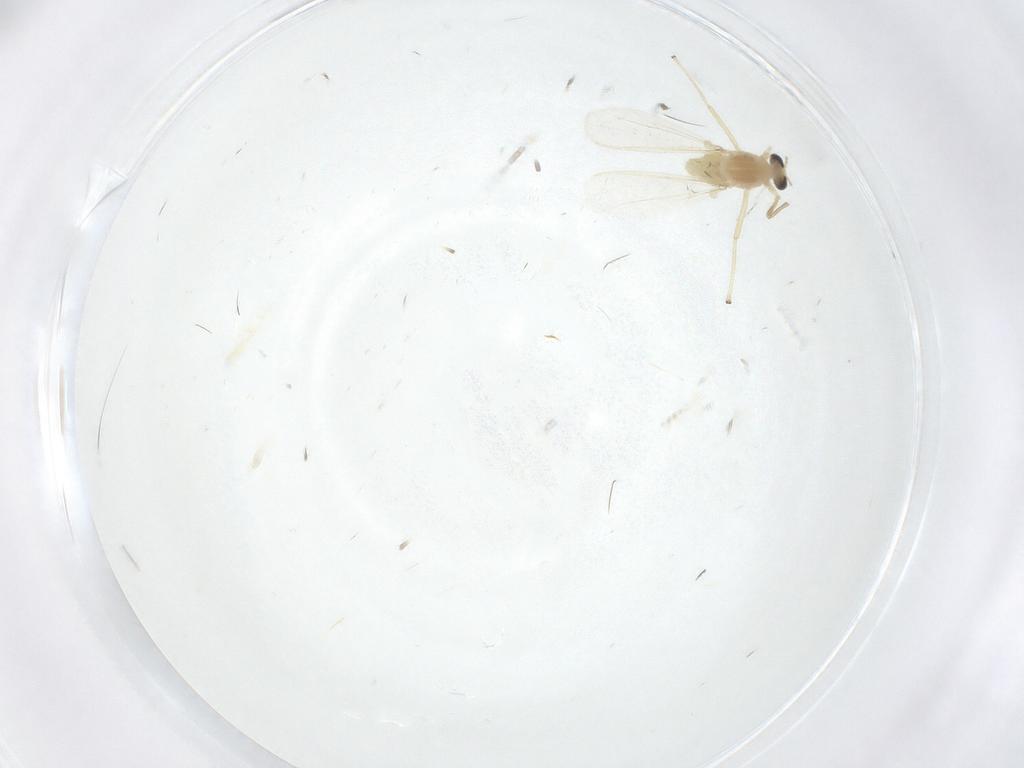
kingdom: Animalia
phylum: Arthropoda
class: Insecta
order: Diptera
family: Sciaridae
